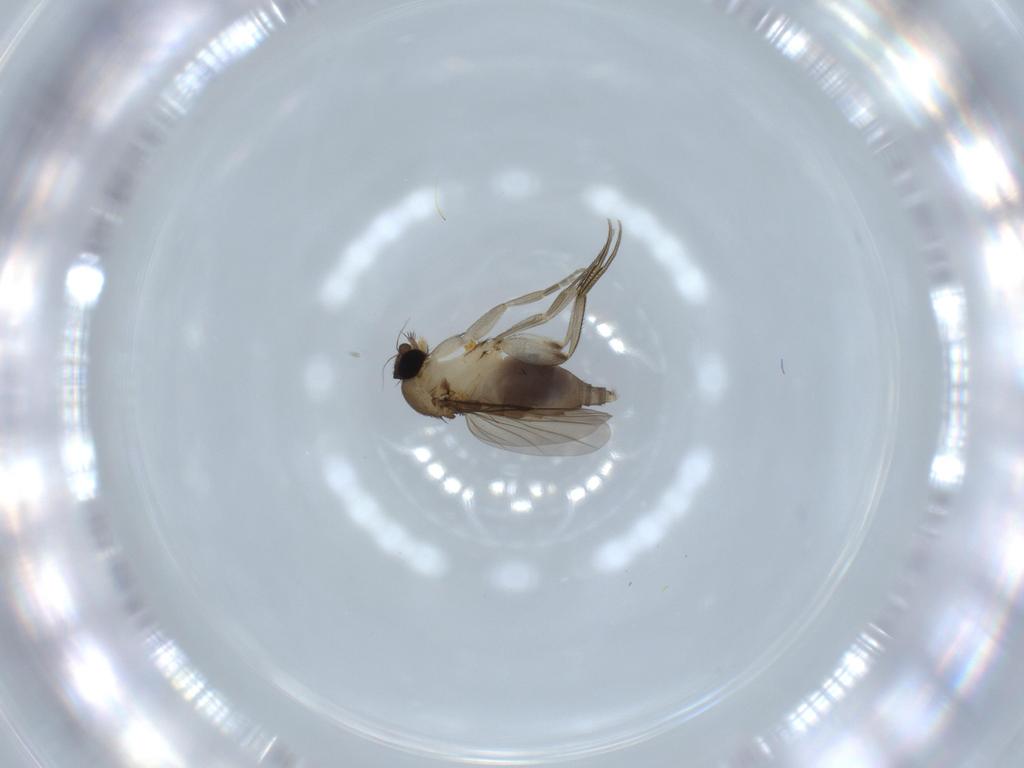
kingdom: Animalia
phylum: Arthropoda
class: Insecta
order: Diptera
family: Phoridae
